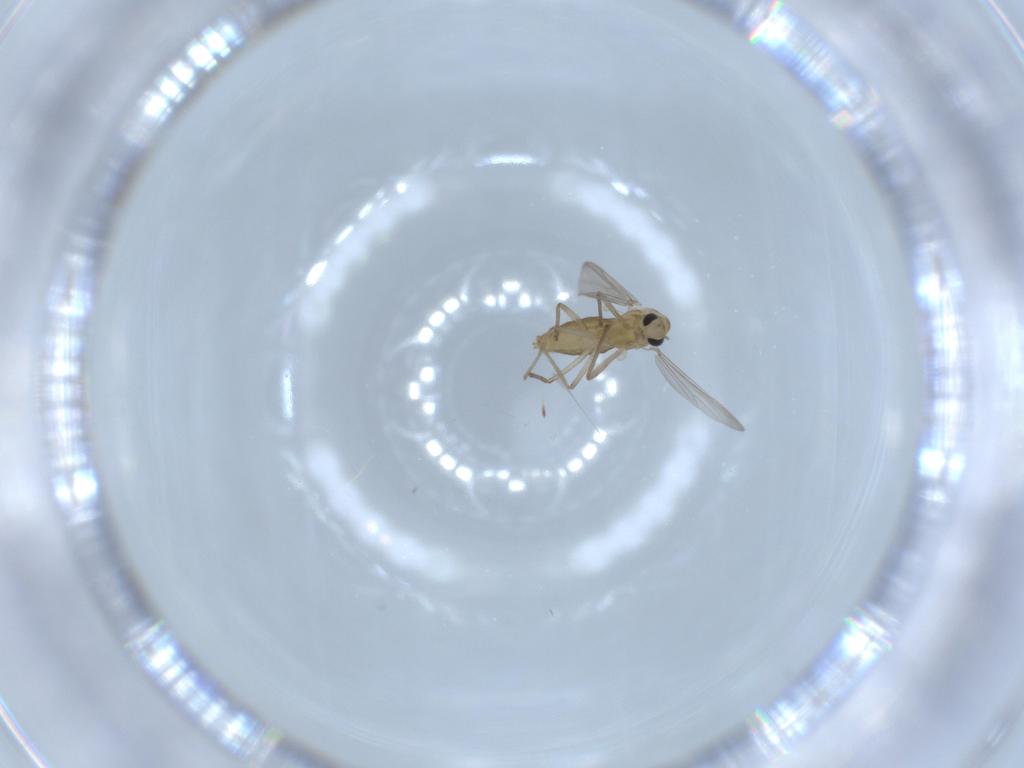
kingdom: Animalia
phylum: Arthropoda
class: Insecta
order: Diptera
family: Chironomidae
